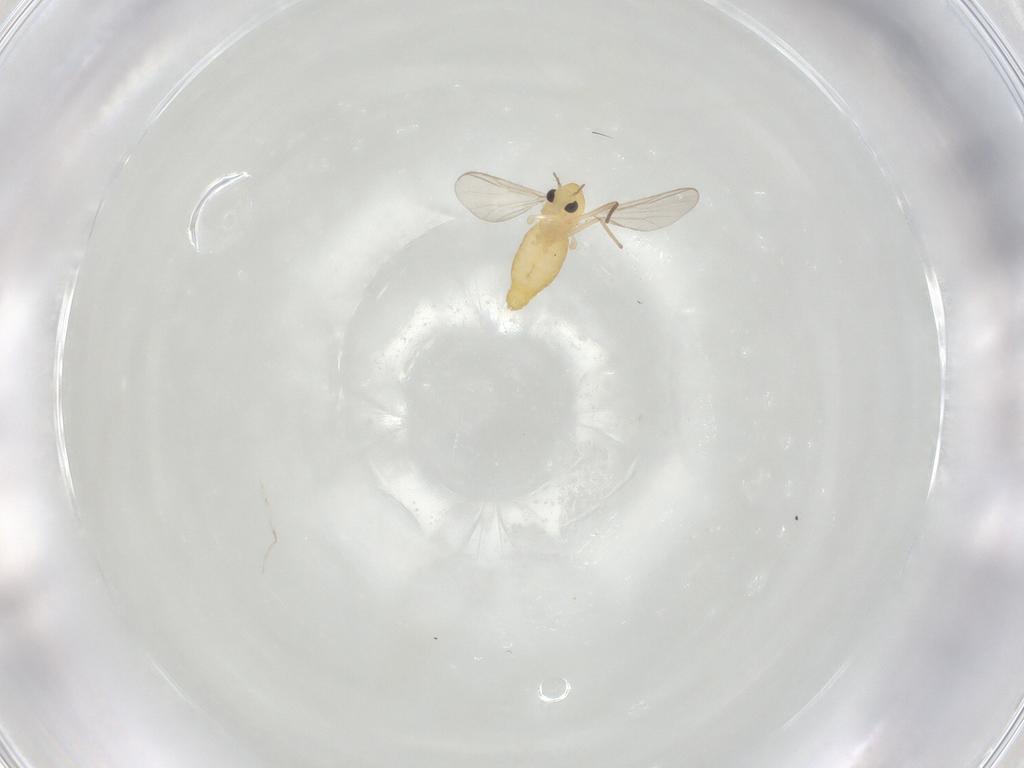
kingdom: Animalia
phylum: Arthropoda
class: Insecta
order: Diptera
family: Chironomidae
